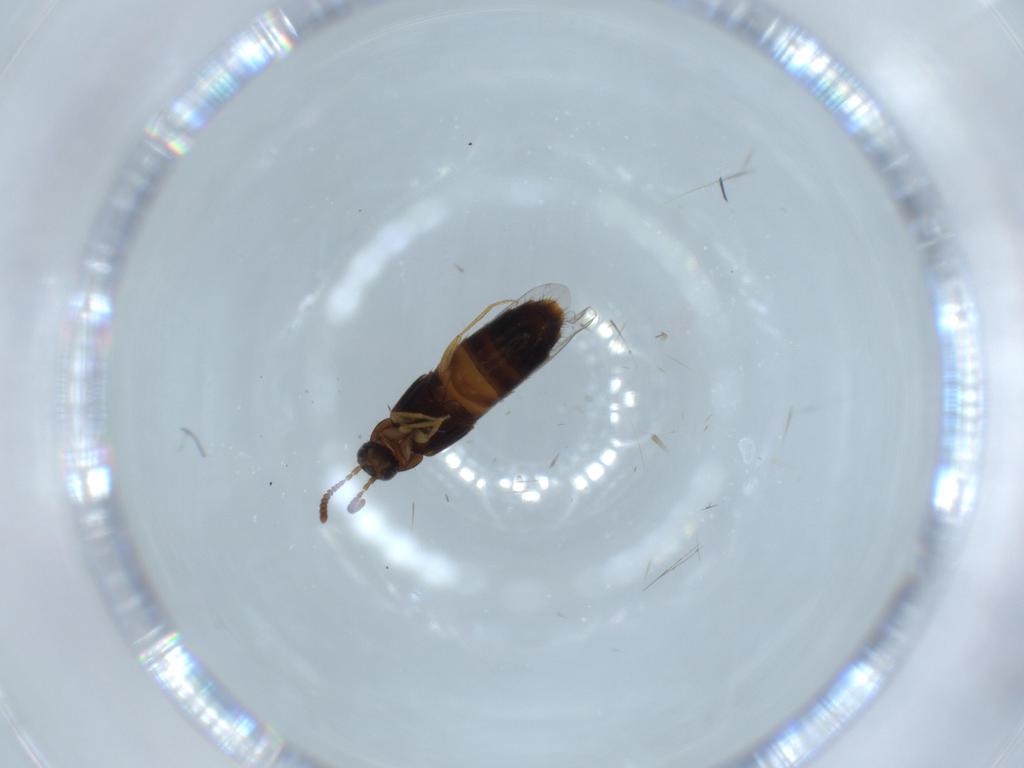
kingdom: Animalia
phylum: Arthropoda
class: Insecta
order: Coleoptera
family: Staphylinidae
